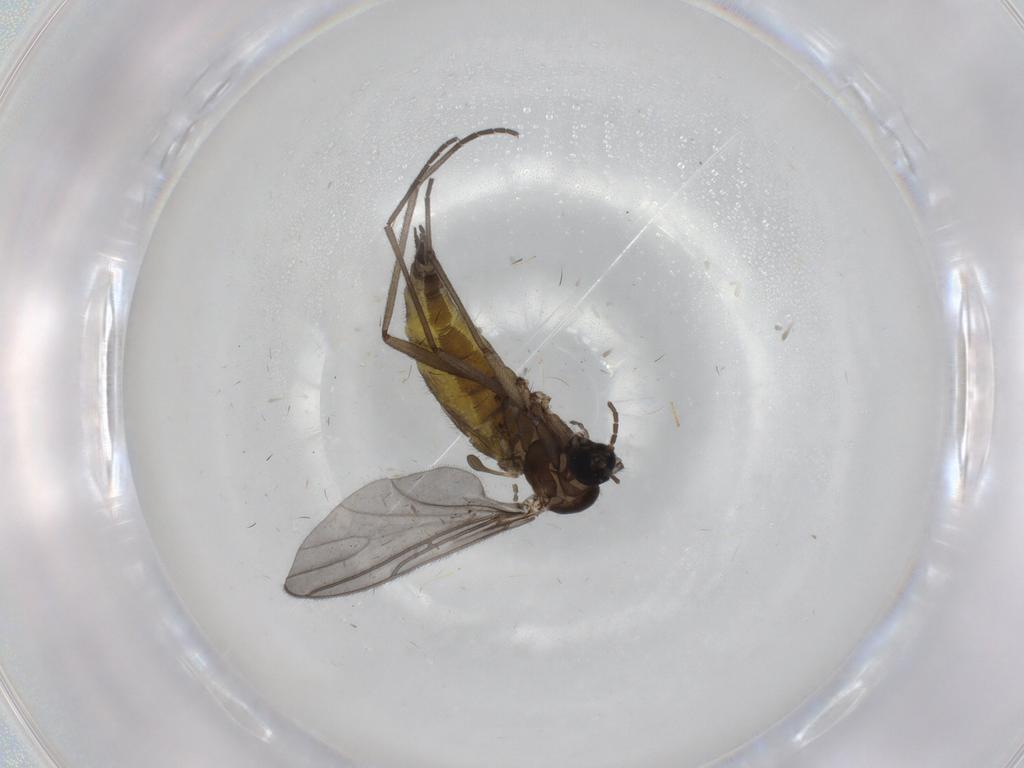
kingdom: Animalia
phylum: Arthropoda
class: Insecta
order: Diptera
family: Sciaridae
